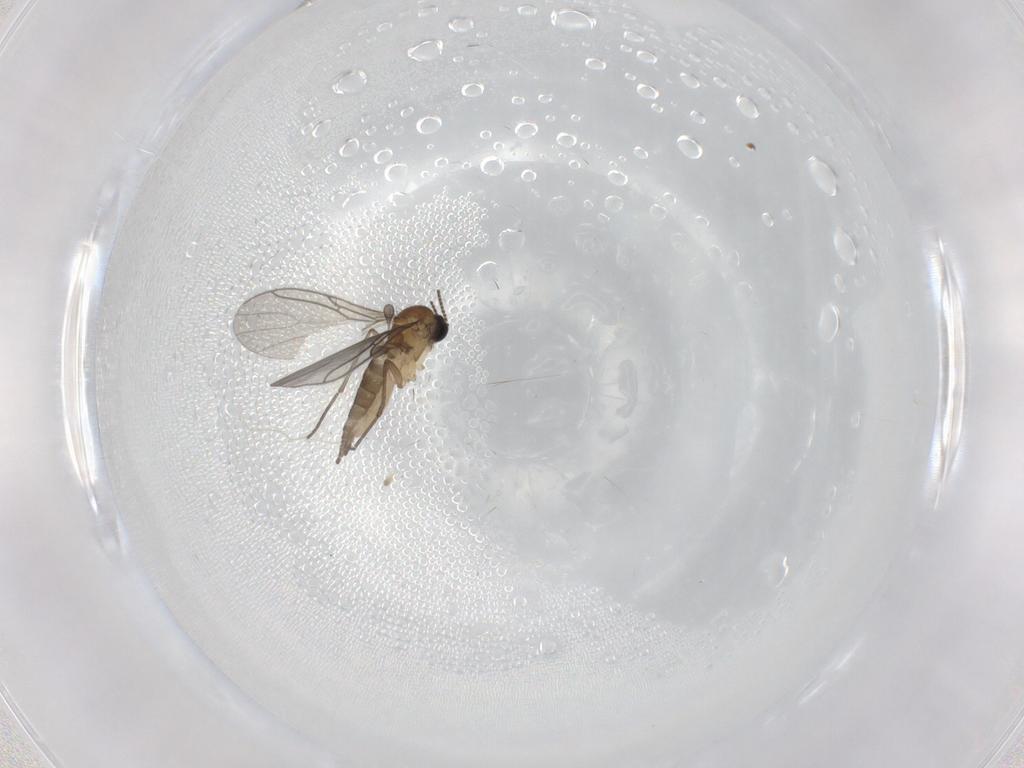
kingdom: Animalia
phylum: Arthropoda
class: Insecta
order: Diptera
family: Sciaridae
